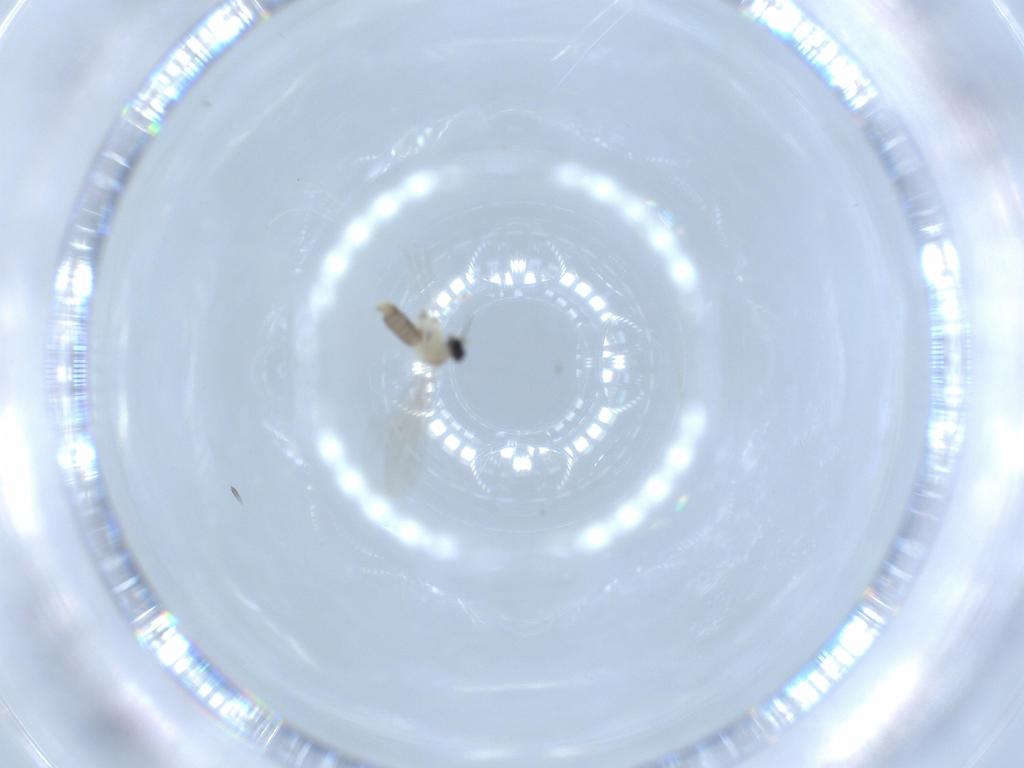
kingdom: Animalia
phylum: Arthropoda
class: Insecta
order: Diptera
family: Cecidomyiidae
